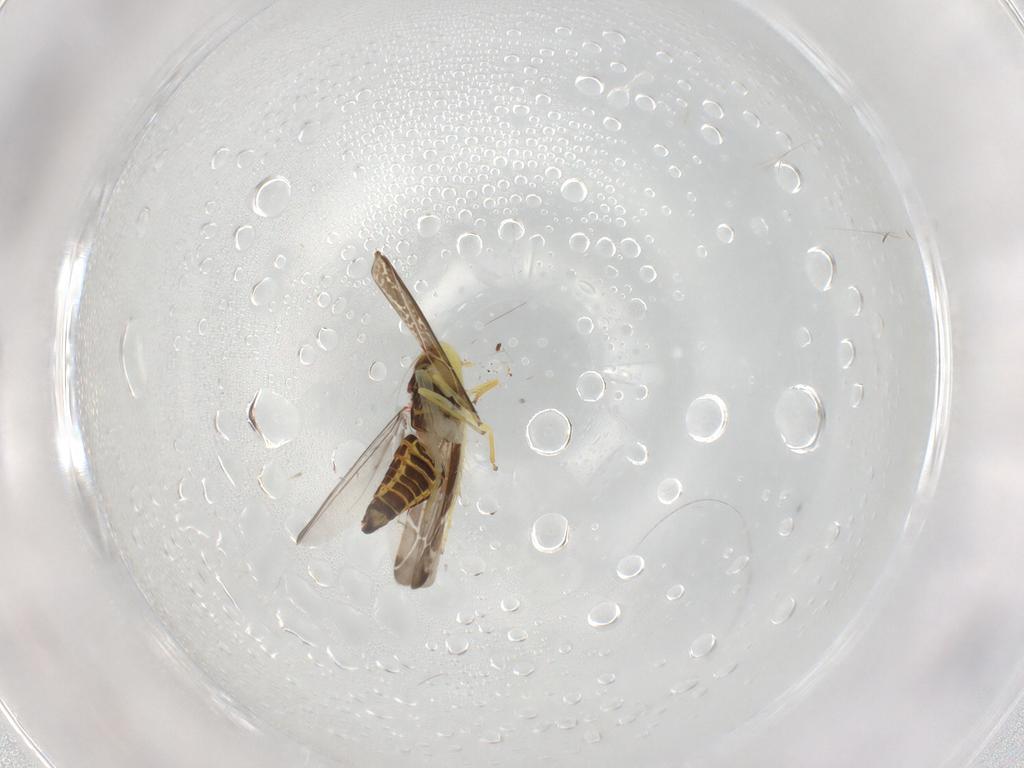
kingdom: Animalia
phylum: Arthropoda
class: Insecta
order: Hemiptera
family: Cicadellidae
